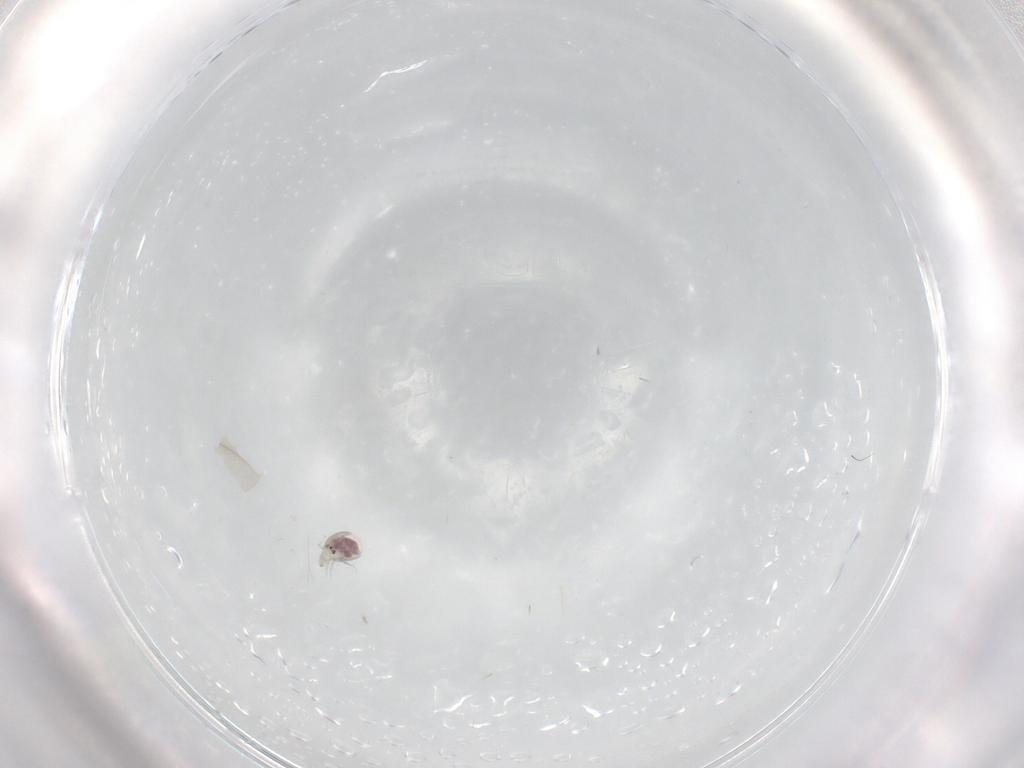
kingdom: Animalia
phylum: Arthropoda
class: Arachnida
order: Trombidiformes
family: Pionidae
